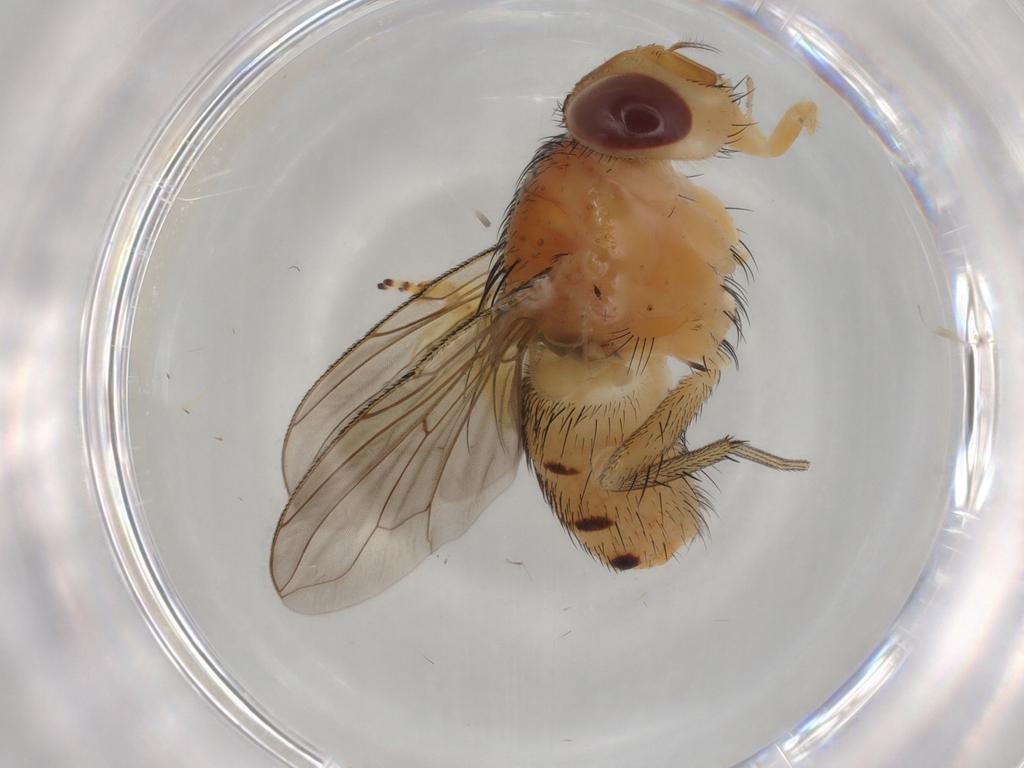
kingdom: Animalia
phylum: Arthropoda
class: Insecta
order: Diptera
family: Calliphoridae
